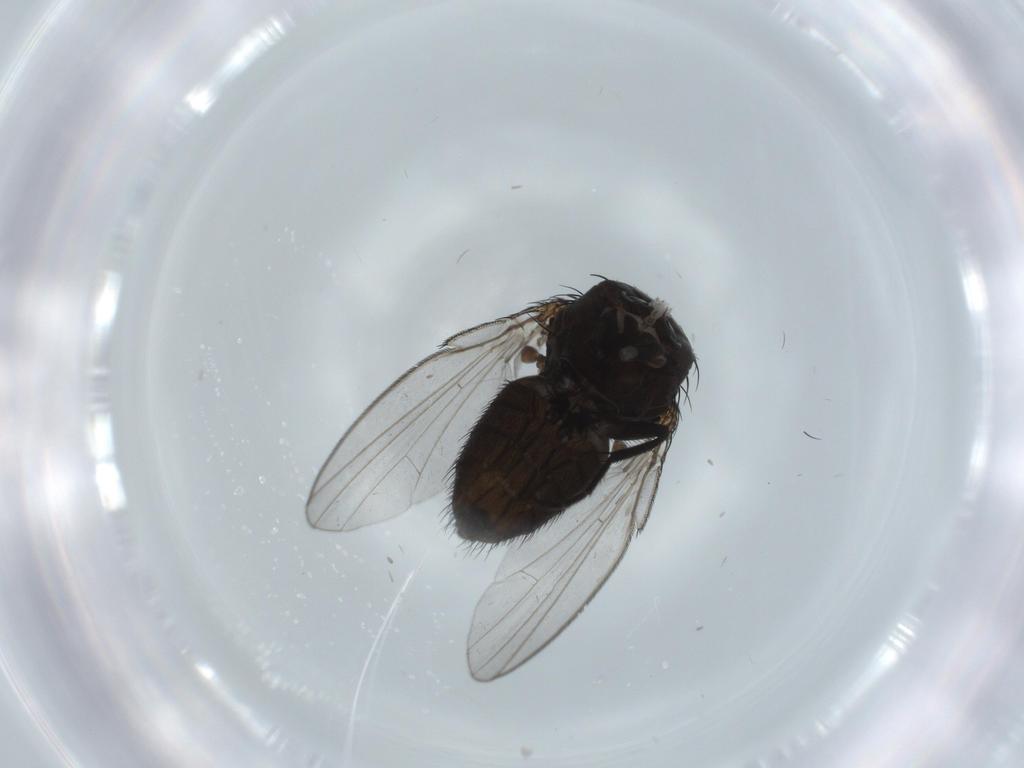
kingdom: Animalia
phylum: Arthropoda
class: Insecta
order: Diptera
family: Milichiidae
